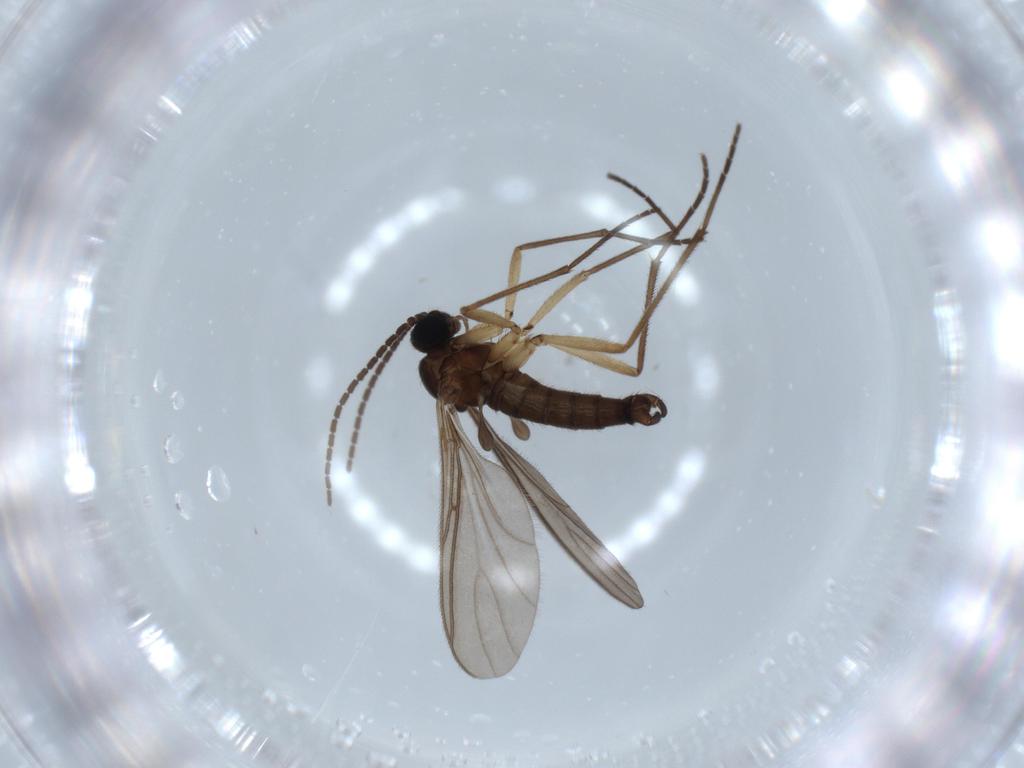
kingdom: Animalia
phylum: Arthropoda
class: Insecta
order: Diptera
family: Sciaridae
